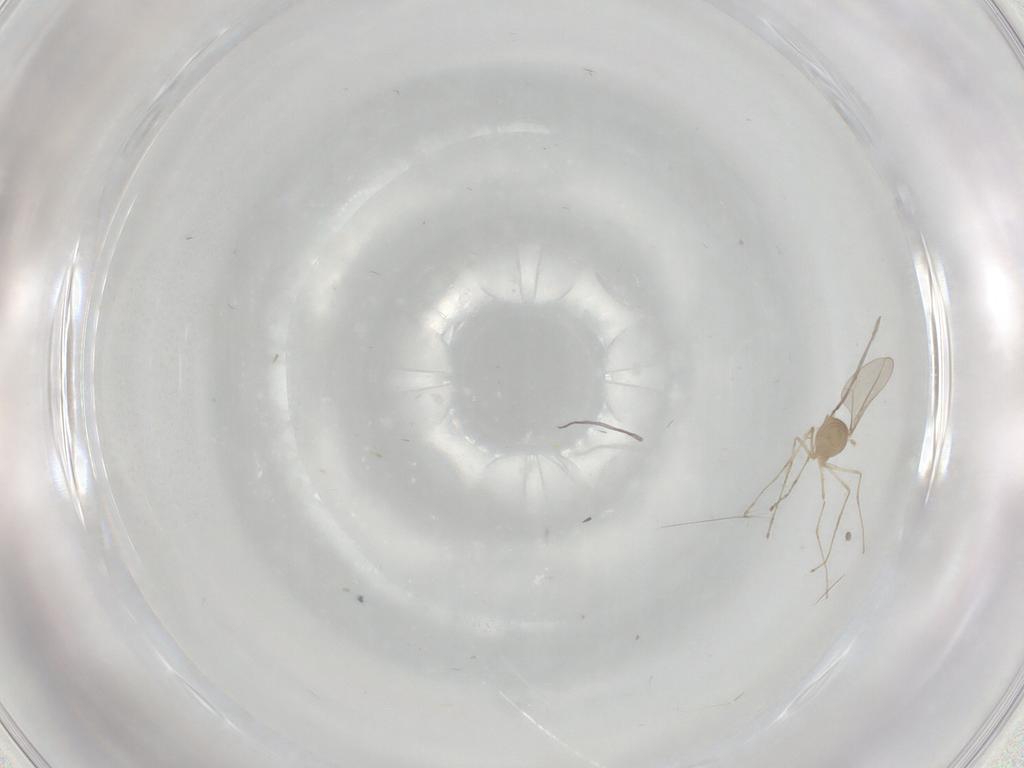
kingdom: Animalia
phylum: Arthropoda
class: Insecta
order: Diptera
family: Cecidomyiidae
